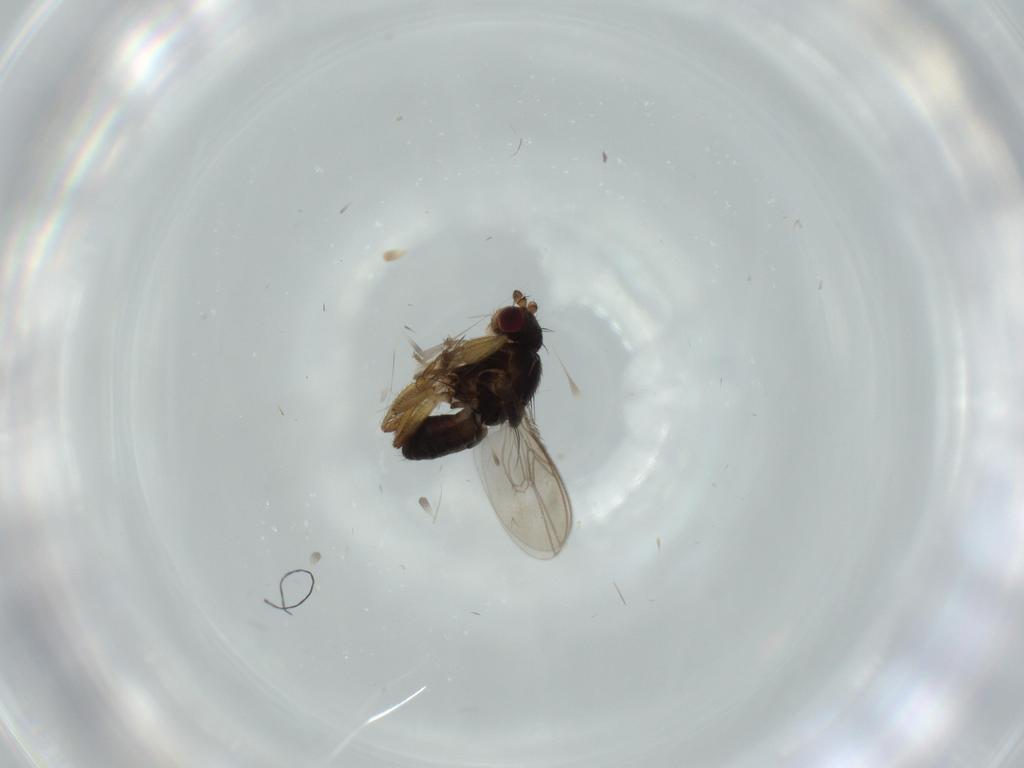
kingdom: Animalia
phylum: Arthropoda
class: Insecta
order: Diptera
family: Sphaeroceridae
